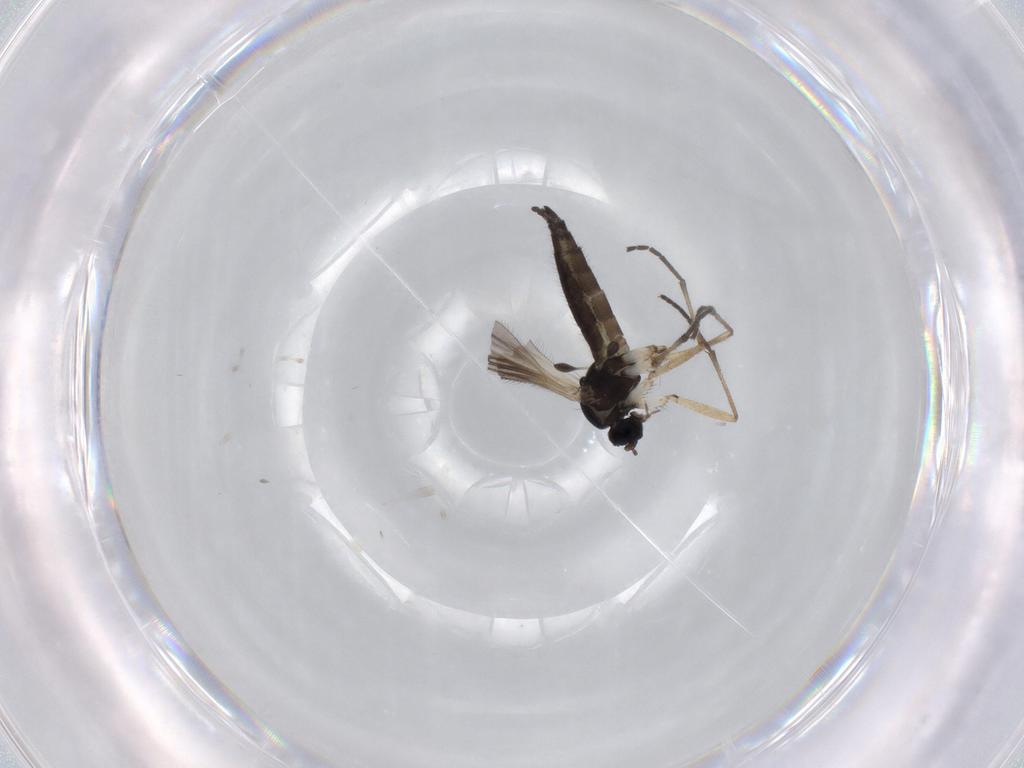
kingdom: Animalia
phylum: Arthropoda
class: Insecta
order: Diptera
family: Sciaridae
